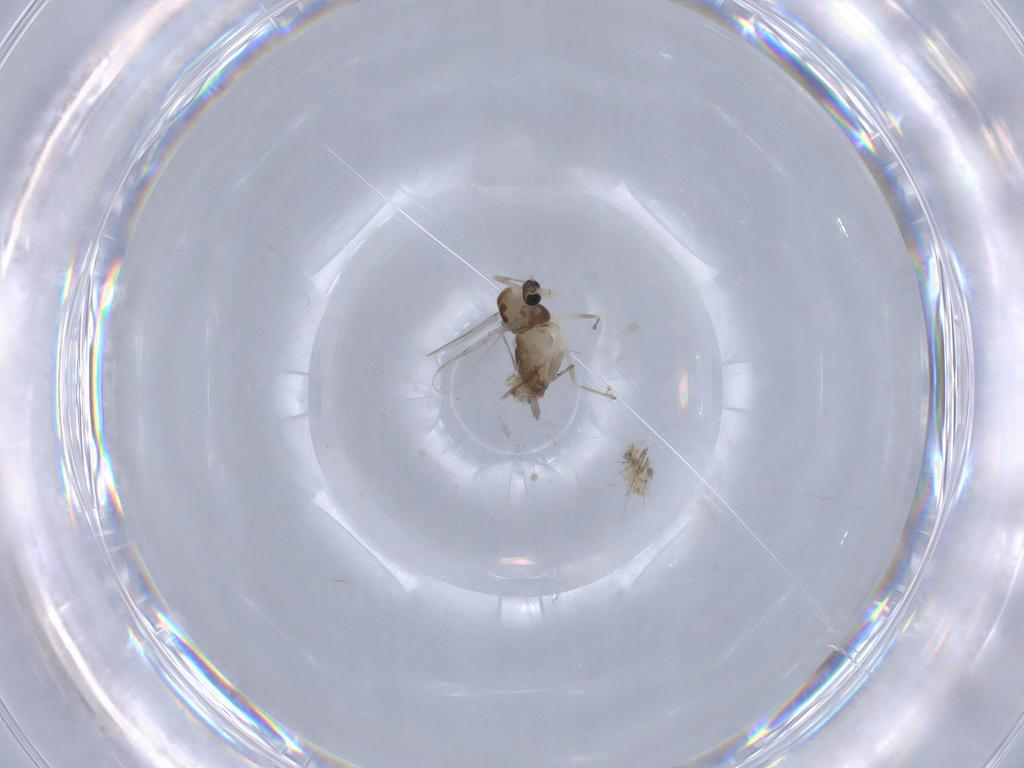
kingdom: Animalia
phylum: Arthropoda
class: Insecta
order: Diptera
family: Chironomidae
